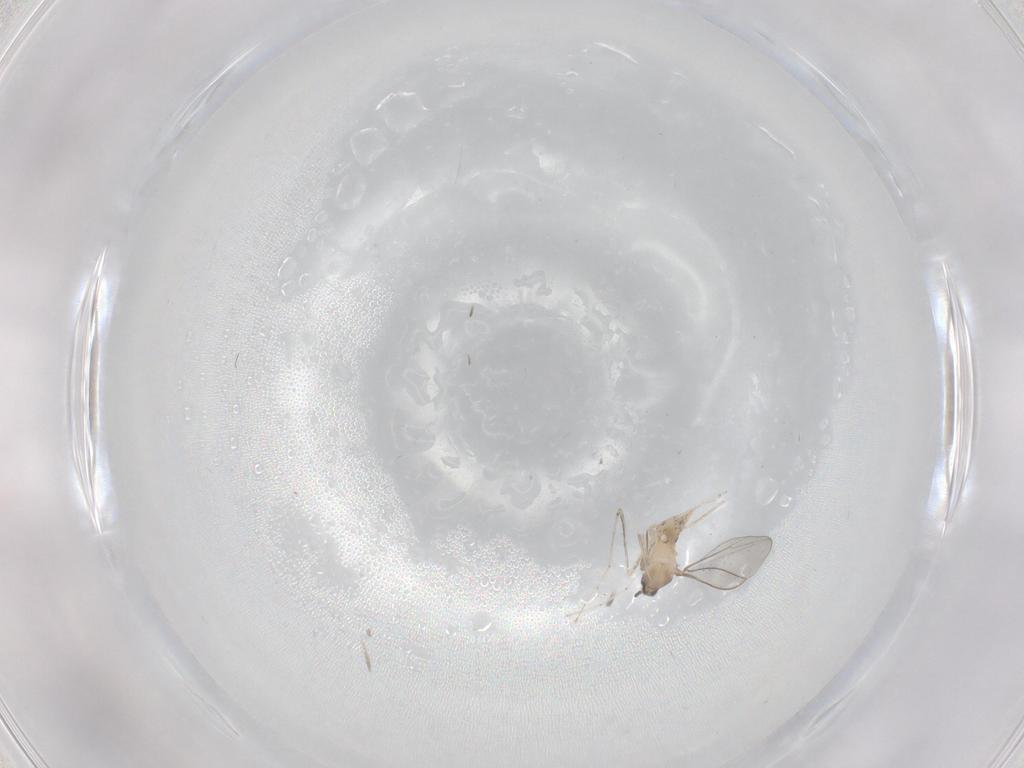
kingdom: Animalia
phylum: Arthropoda
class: Insecta
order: Diptera
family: Cecidomyiidae
